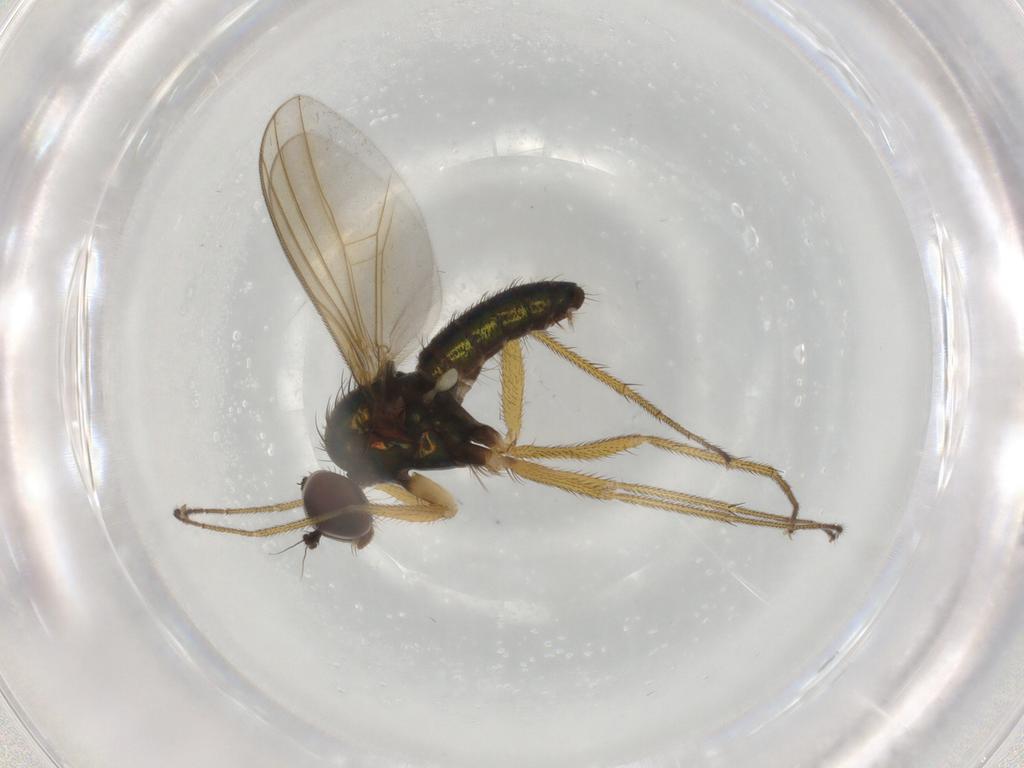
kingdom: Animalia
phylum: Arthropoda
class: Insecta
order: Diptera
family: Dolichopodidae
